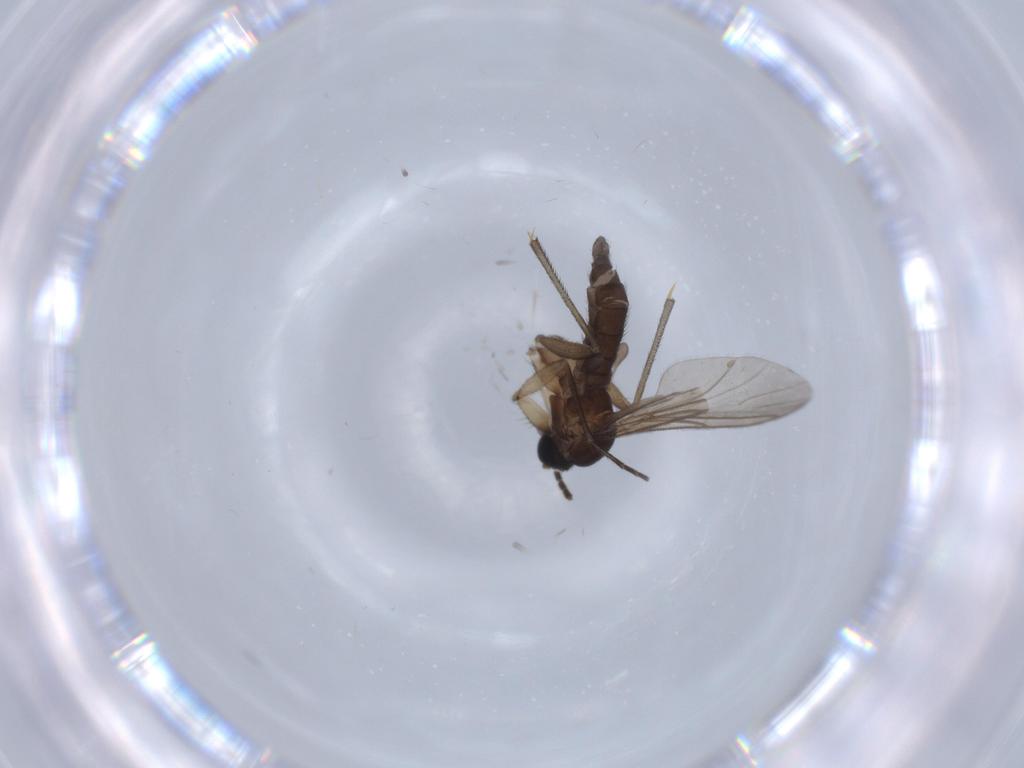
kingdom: Animalia
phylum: Arthropoda
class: Insecta
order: Diptera
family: Sciaridae
